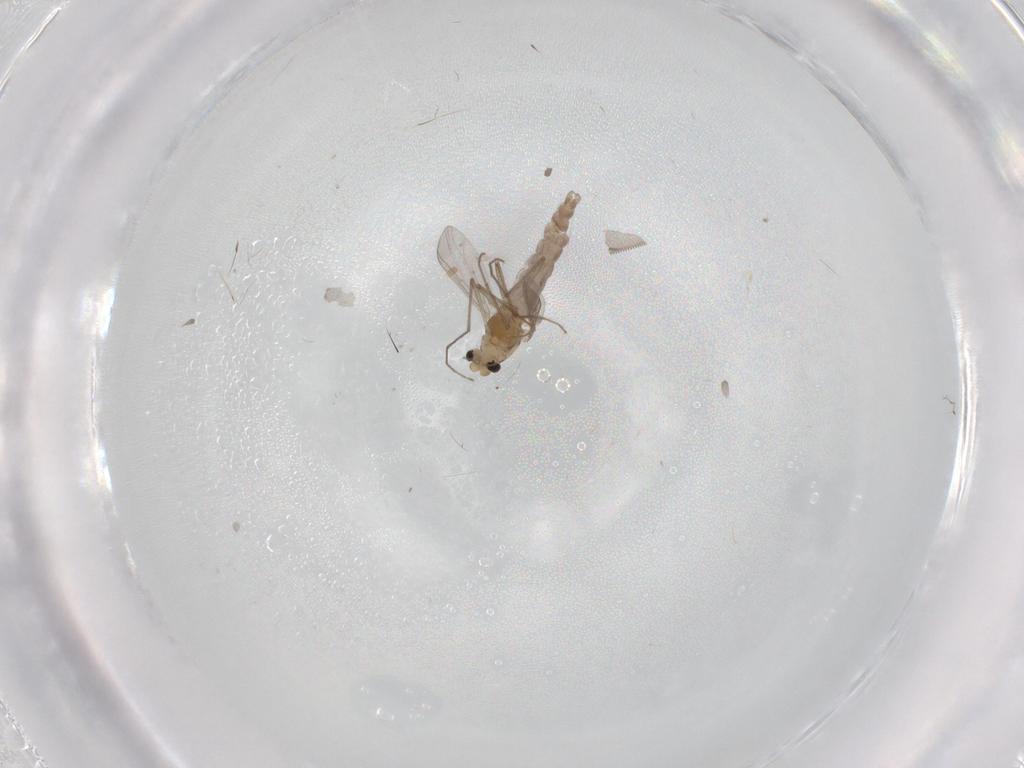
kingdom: Animalia
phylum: Arthropoda
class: Insecta
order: Diptera
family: Chironomidae
